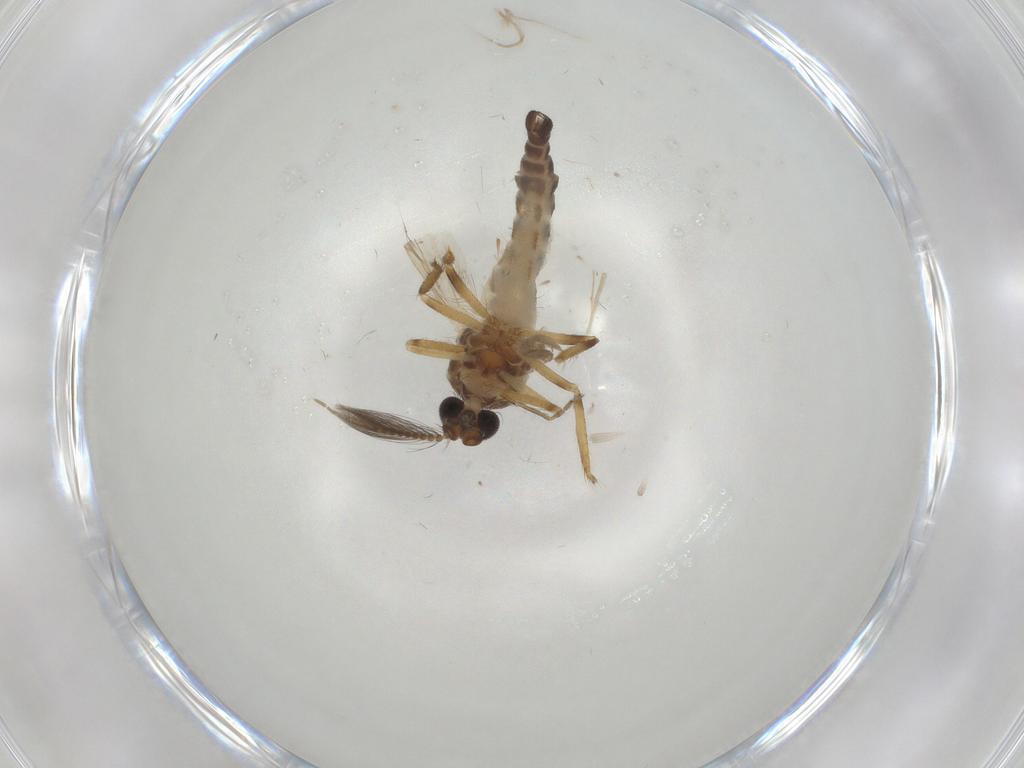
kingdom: Animalia
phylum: Arthropoda
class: Insecta
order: Diptera
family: Ceratopogonidae
